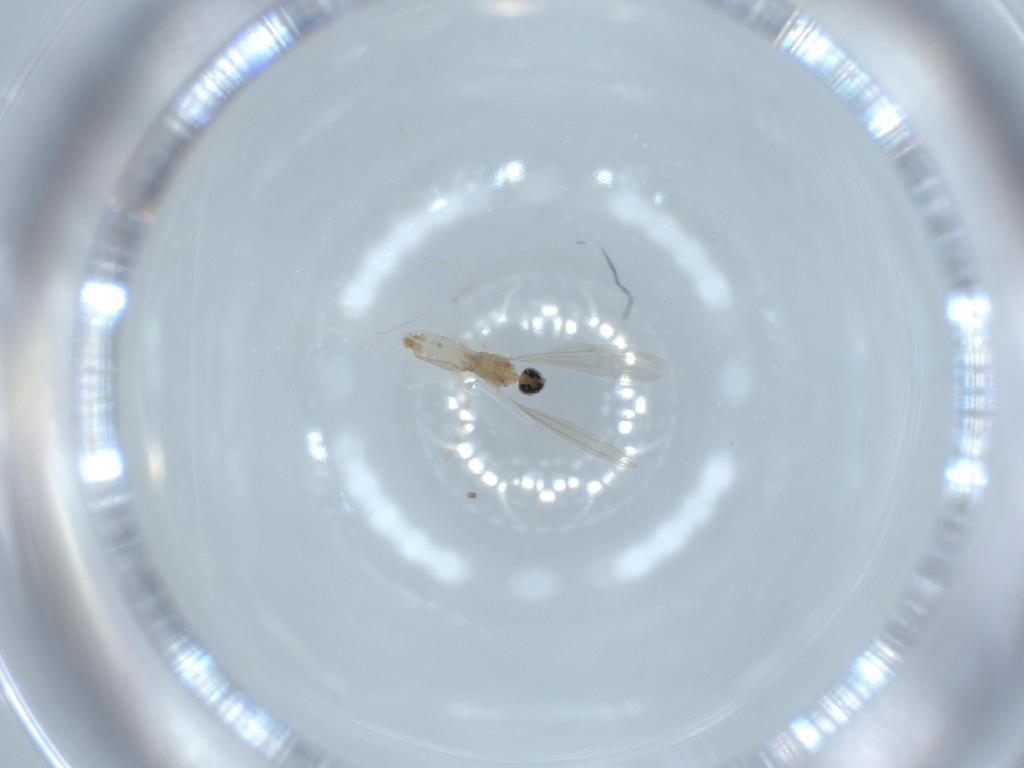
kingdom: Animalia
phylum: Arthropoda
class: Insecta
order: Diptera
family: Cecidomyiidae
